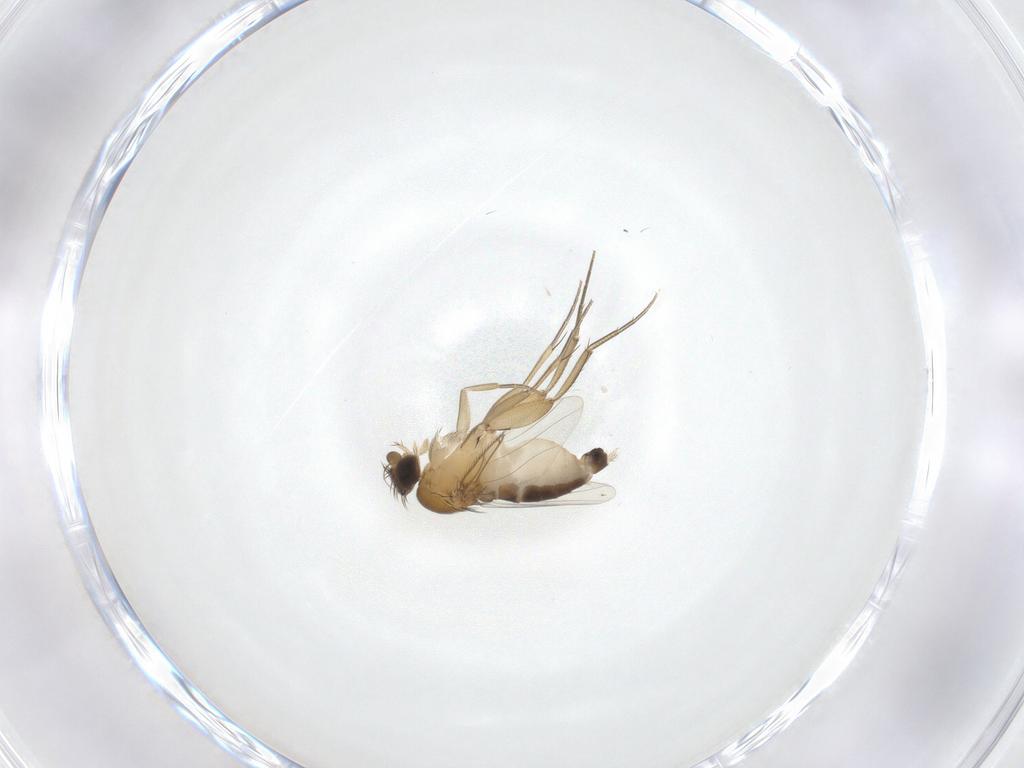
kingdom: Animalia
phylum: Arthropoda
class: Insecta
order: Diptera
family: Phoridae
